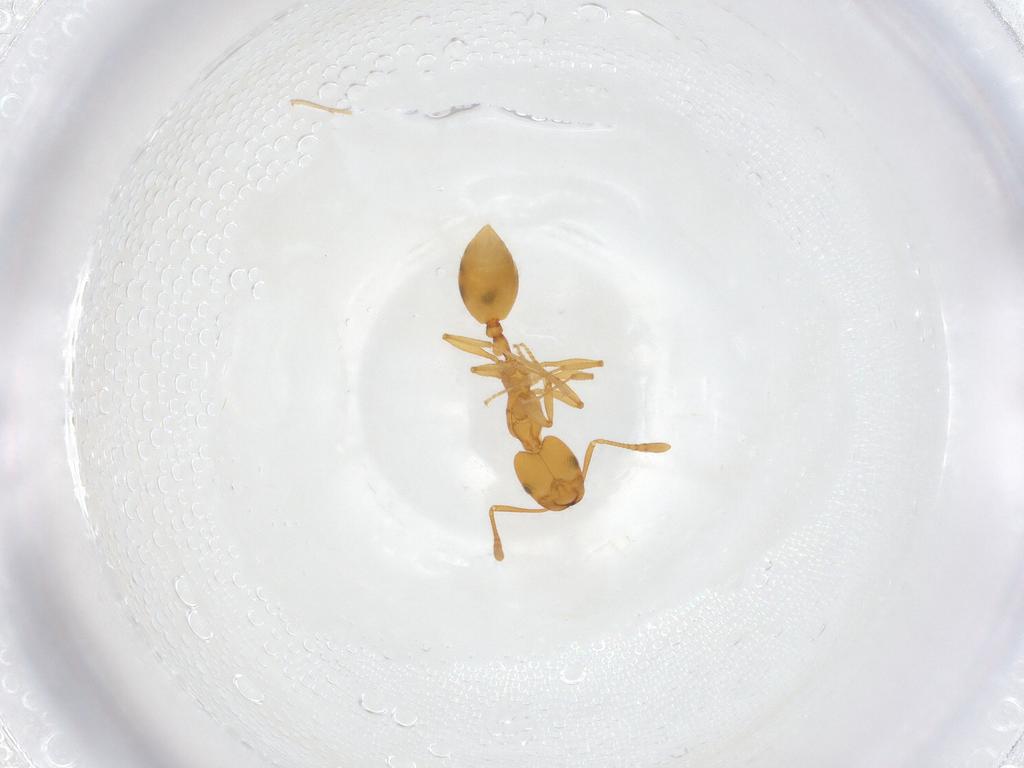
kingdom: Animalia
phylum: Arthropoda
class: Insecta
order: Hymenoptera
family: Formicidae
